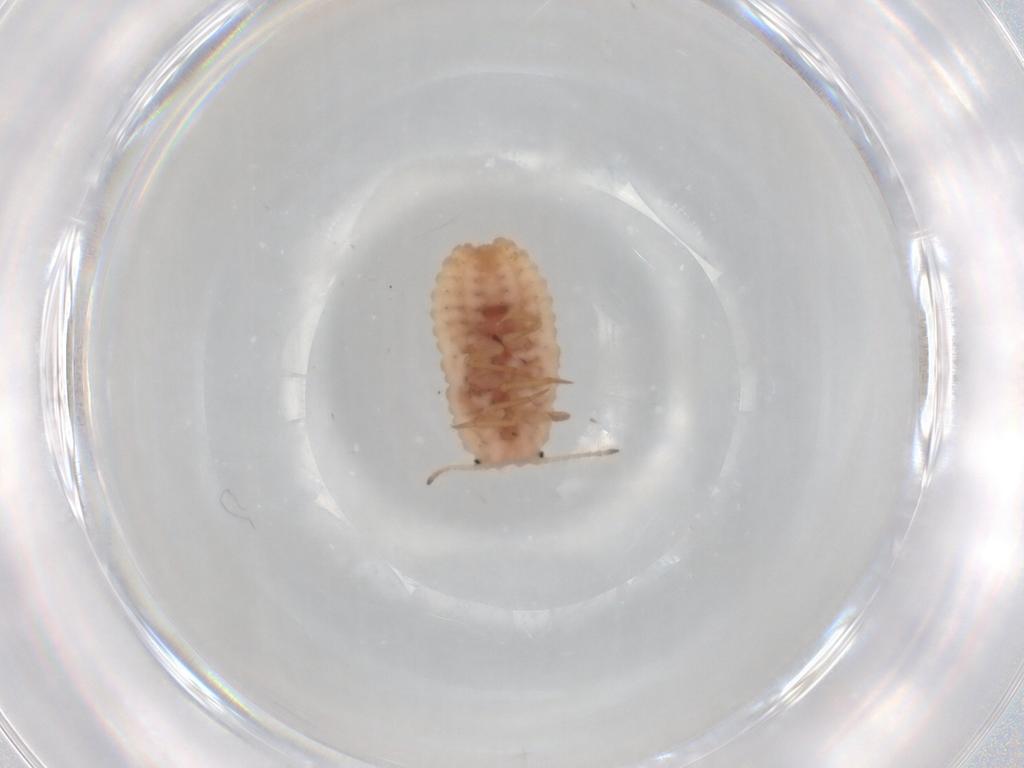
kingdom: Animalia
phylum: Arthropoda
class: Insecta
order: Hemiptera
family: Coccoidea_incertae_sedis
